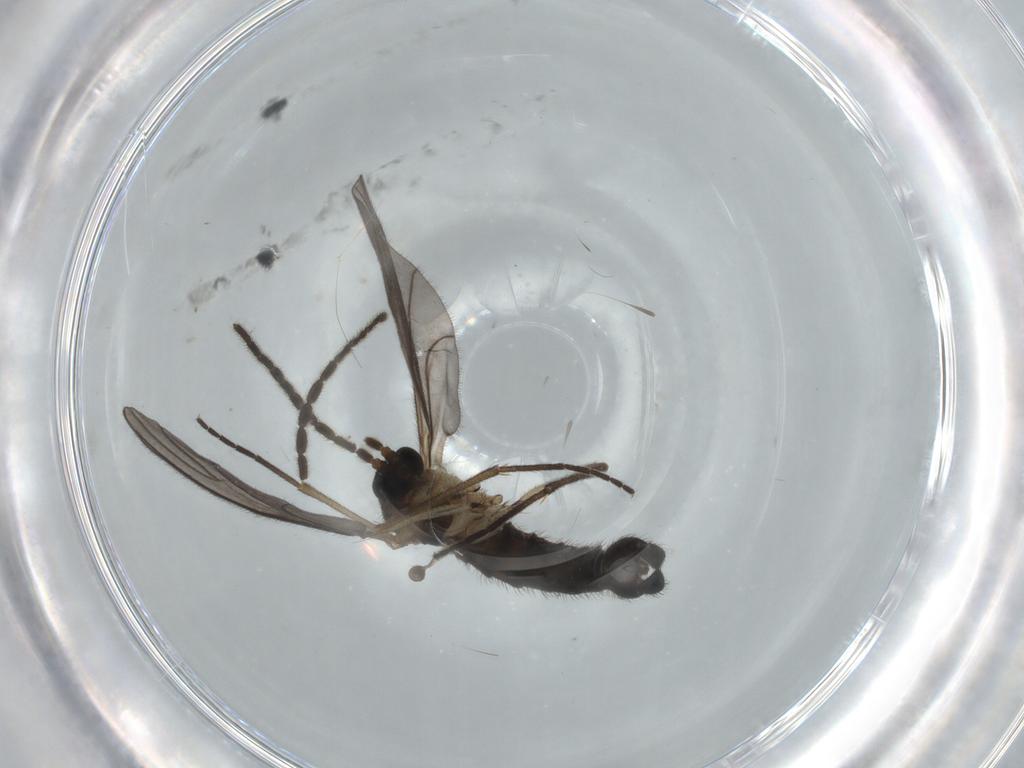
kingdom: Animalia
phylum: Arthropoda
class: Insecta
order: Diptera
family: Sciaridae
